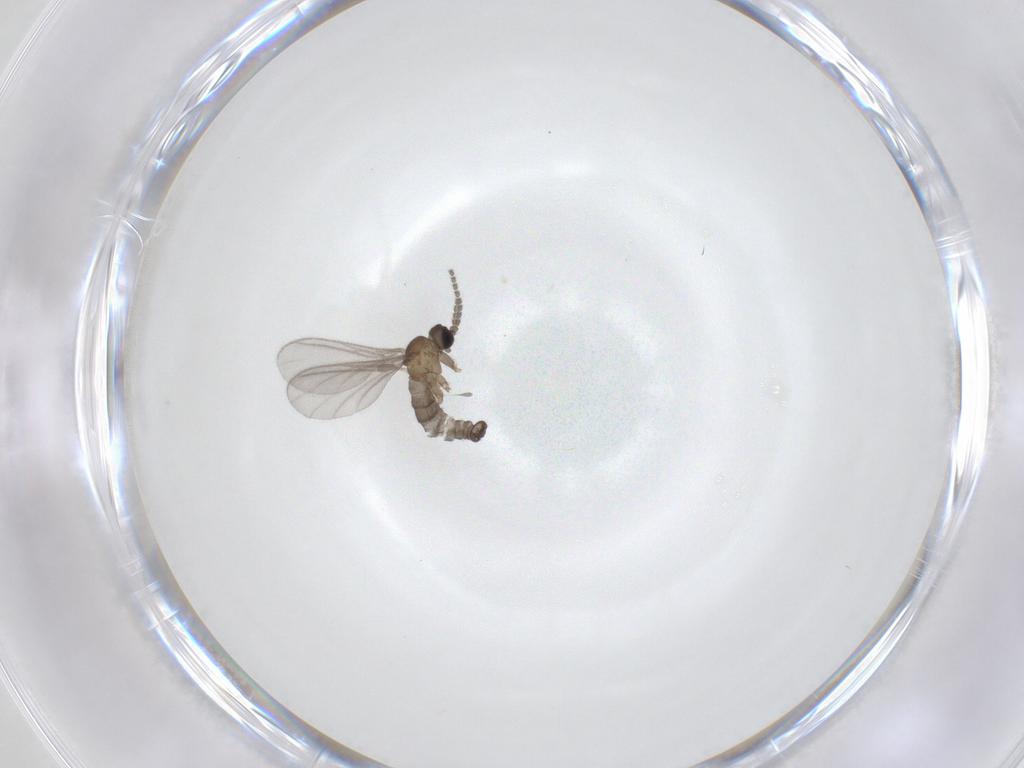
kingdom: Animalia
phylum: Arthropoda
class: Insecta
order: Diptera
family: Sciaridae
